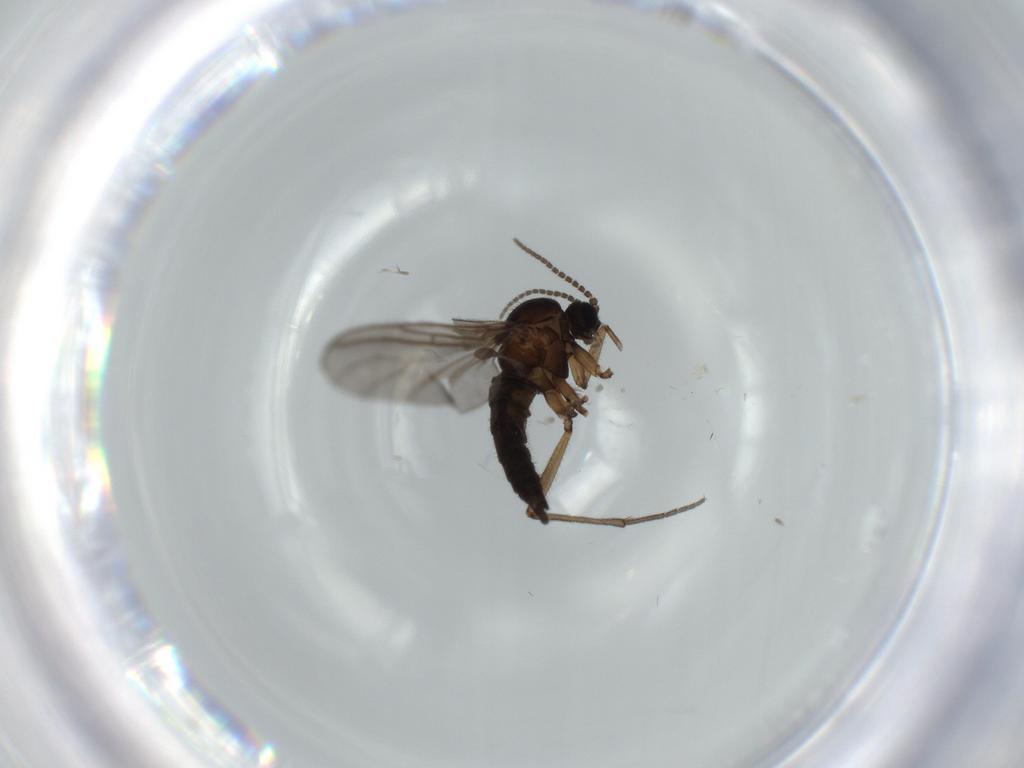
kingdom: Animalia
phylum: Arthropoda
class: Insecta
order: Diptera
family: Sciaridae
